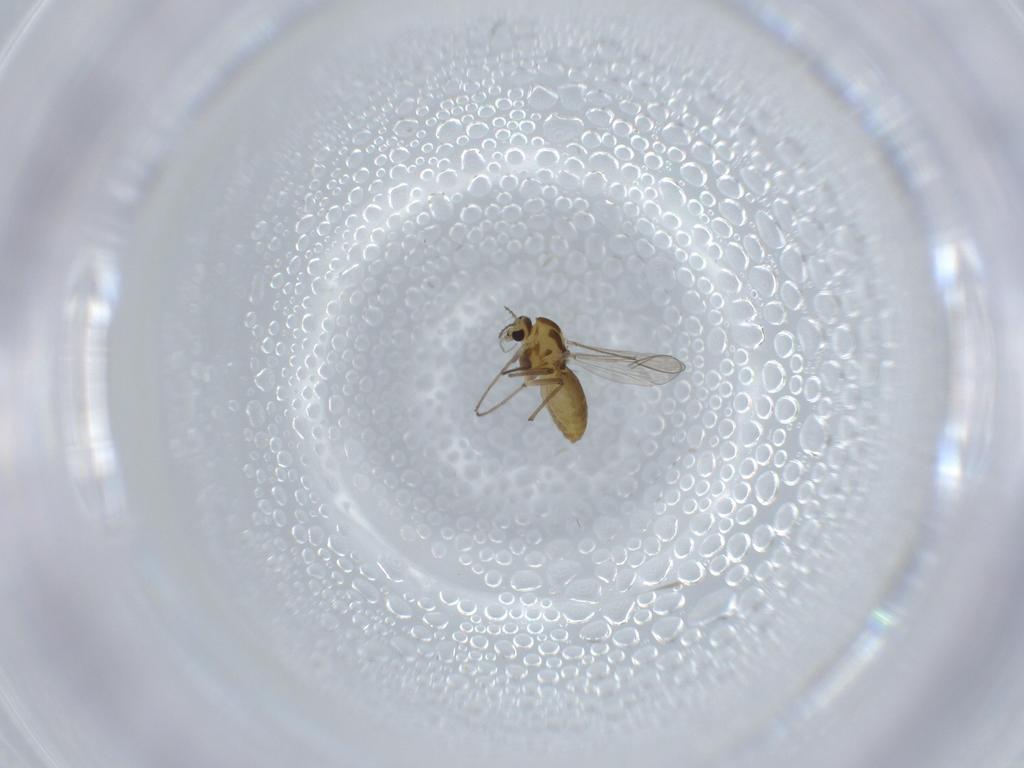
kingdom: Animalia
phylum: Arthropoda
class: Insecta
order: Diptera
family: Chironomidae
